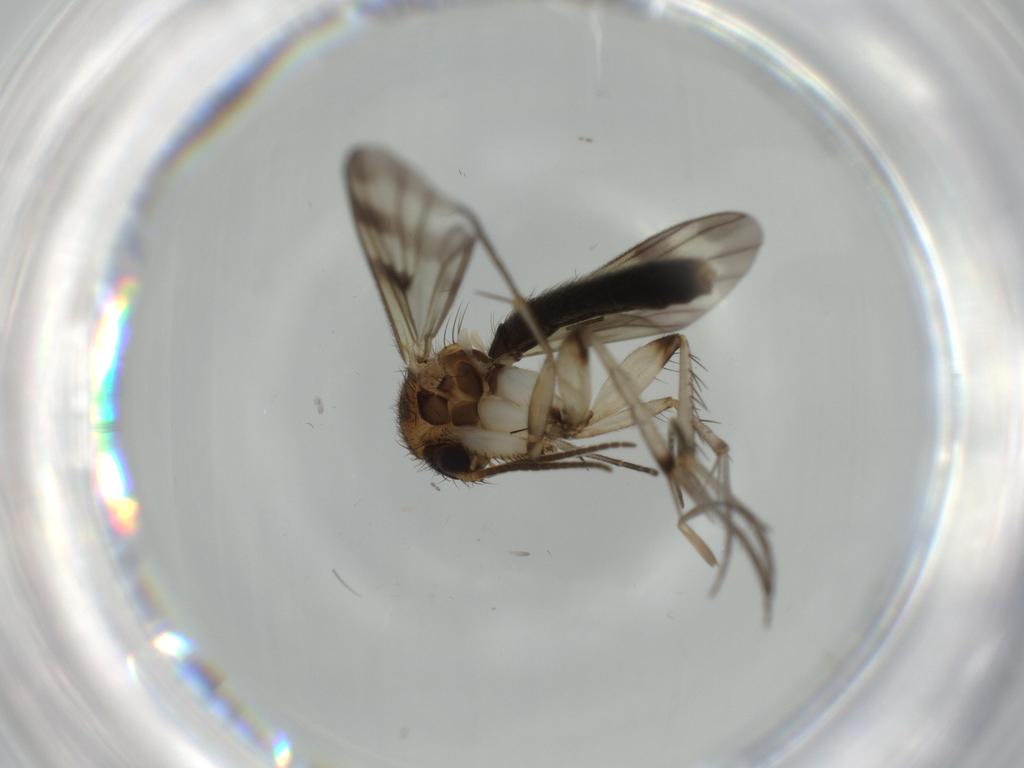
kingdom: Animalia
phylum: Arthropoda
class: Insecta
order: Diptera
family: Mycetophilidae
